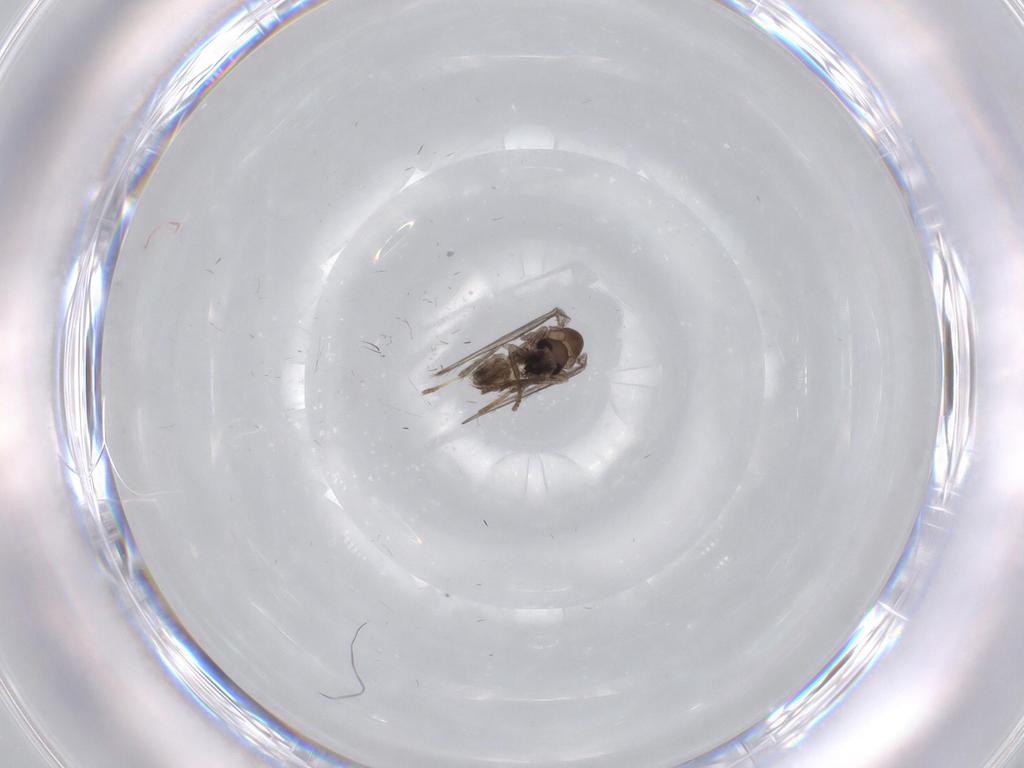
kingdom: Animalia
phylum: Arthropoda
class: Insecta
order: Diptera
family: Psychodidae
